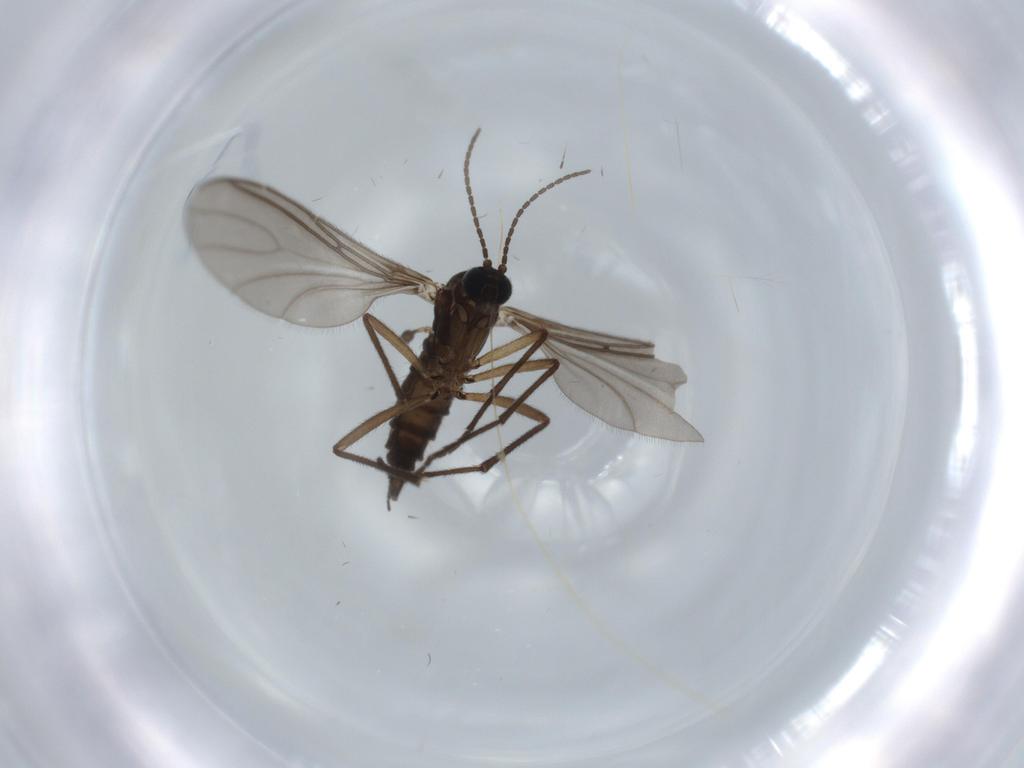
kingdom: Animalia
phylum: Arthropoda
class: Insecta
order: Diptera
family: Sciaridae
